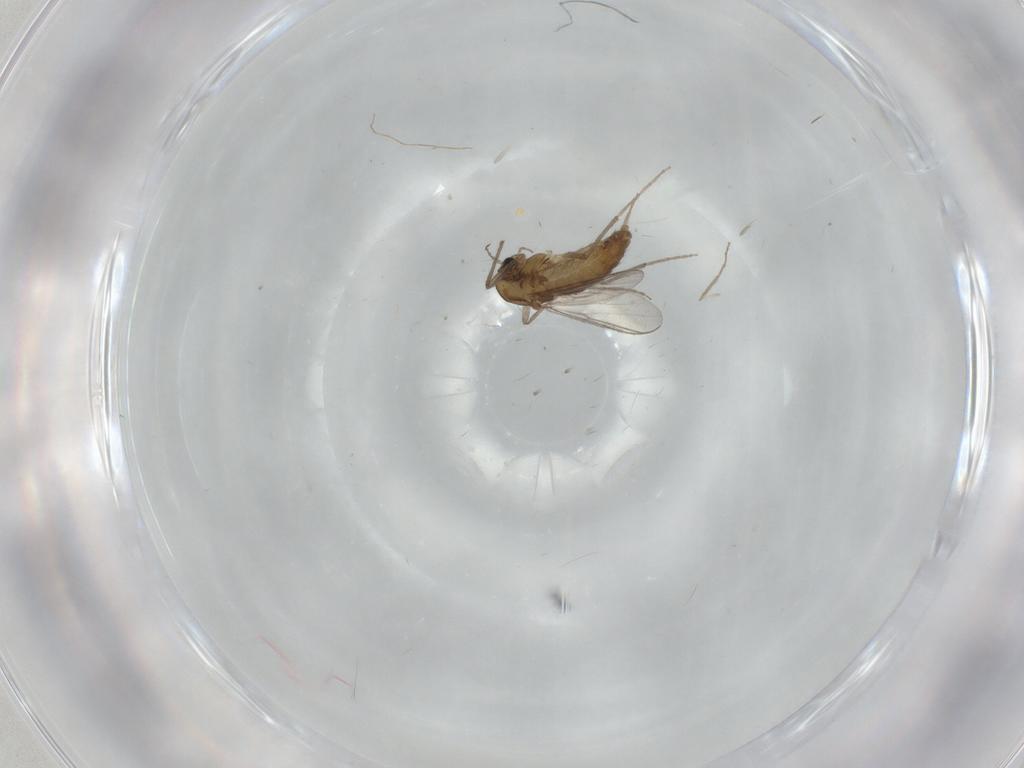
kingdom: Animalia
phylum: Arthropoda
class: Insecta
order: Diptera
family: Chironomidae
